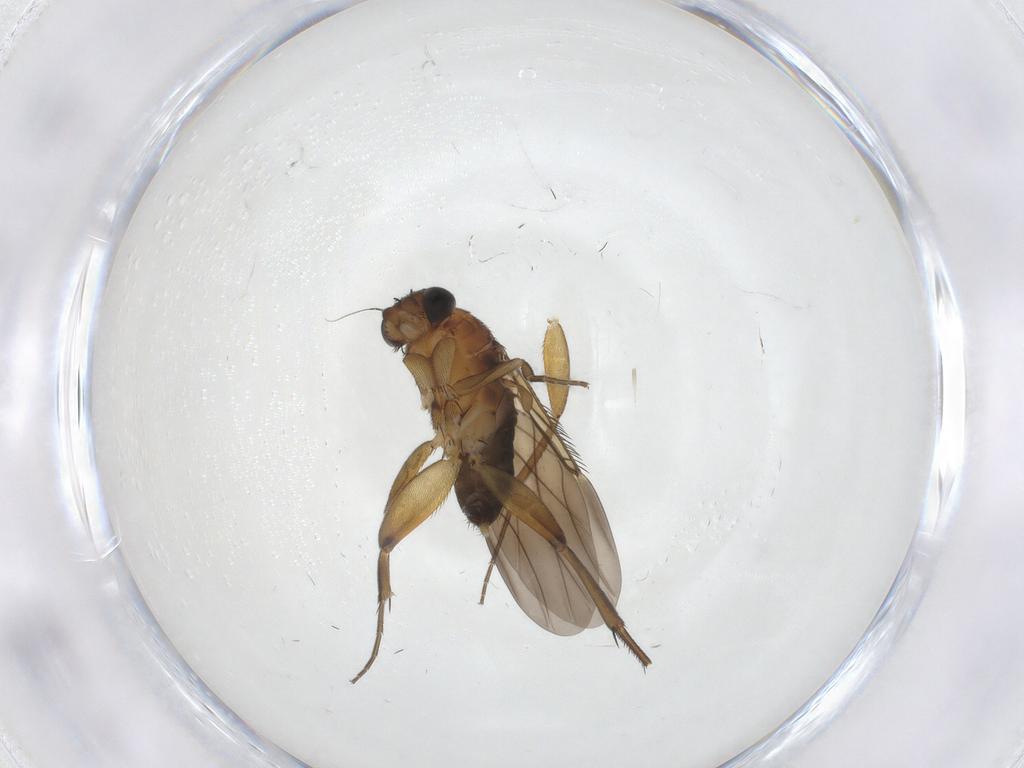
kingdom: Animalia
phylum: Arthropoda
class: Insecta
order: Diptera
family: Phoridae
